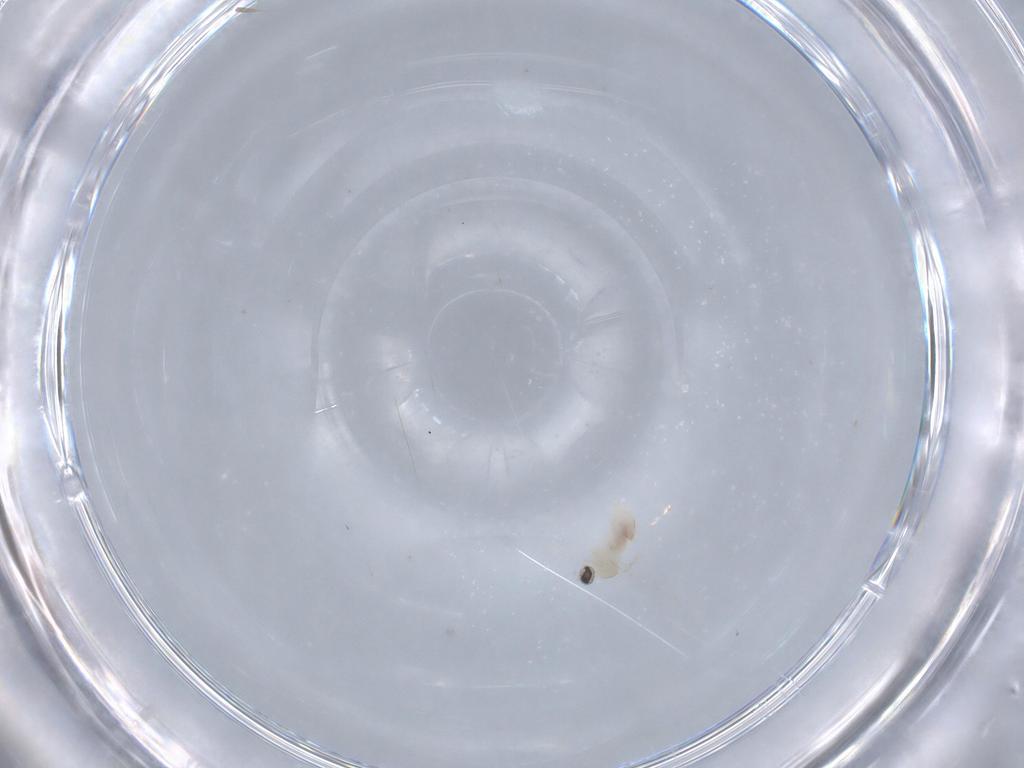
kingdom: Animalia
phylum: Arthropoda
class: Insecta
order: Diptera
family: Cecidomyiidae
